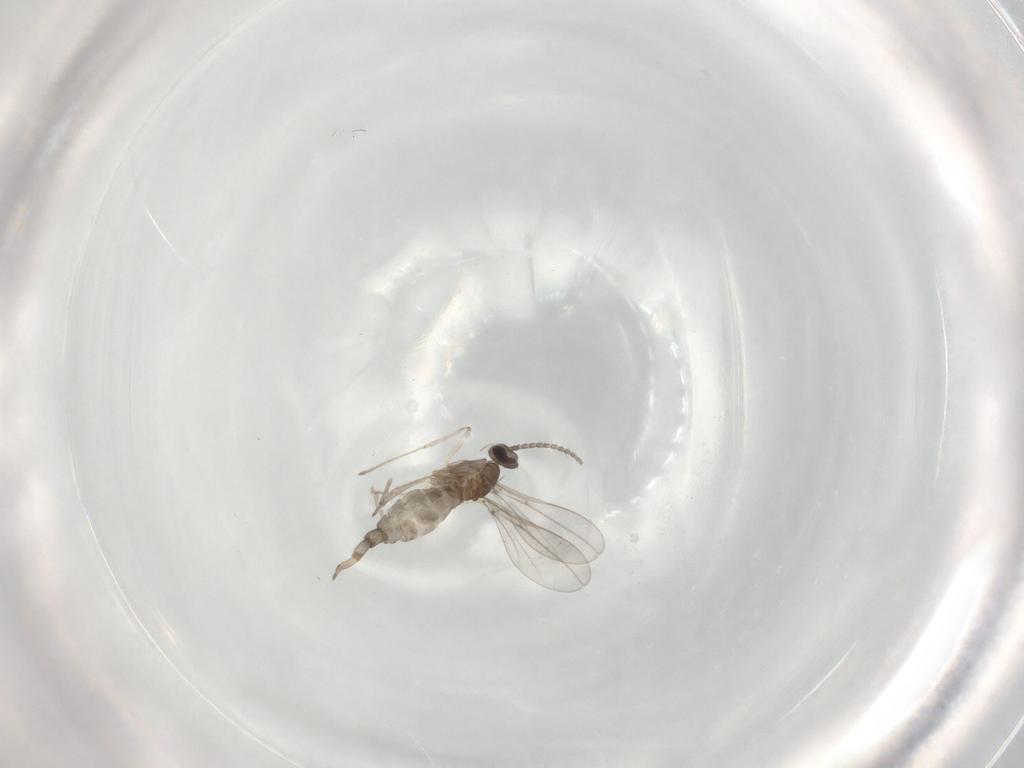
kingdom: Animalia
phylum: Arthropoda
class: Insecta
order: Diptera
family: Cecidomyiidae
